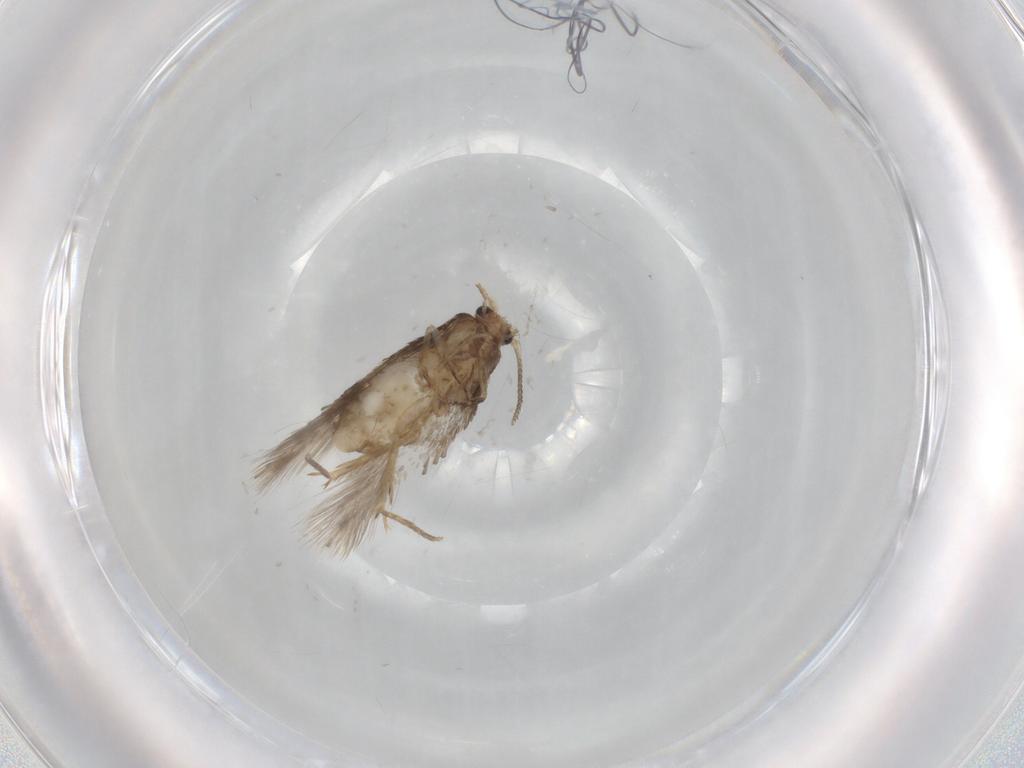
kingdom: Animalia
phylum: Arthropoda
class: Insecta
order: Lepidoptera
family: Nepticulidae
